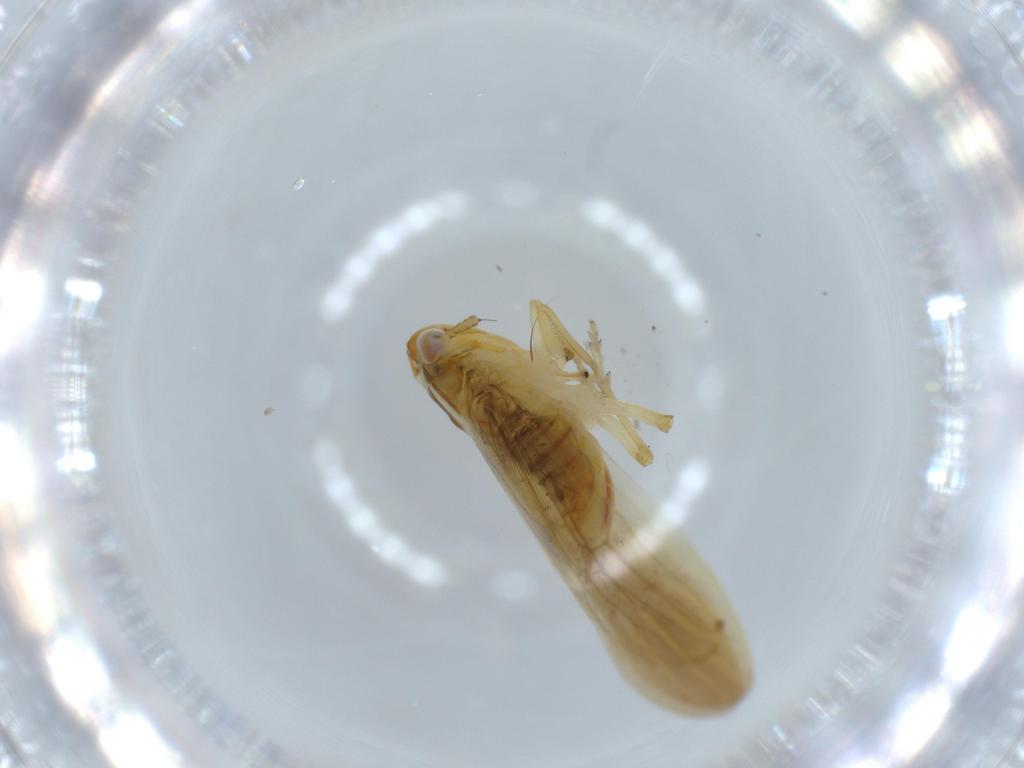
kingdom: Animalia
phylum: Arthropoda
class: Insecta
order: Hemiptera
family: Delphacidae
